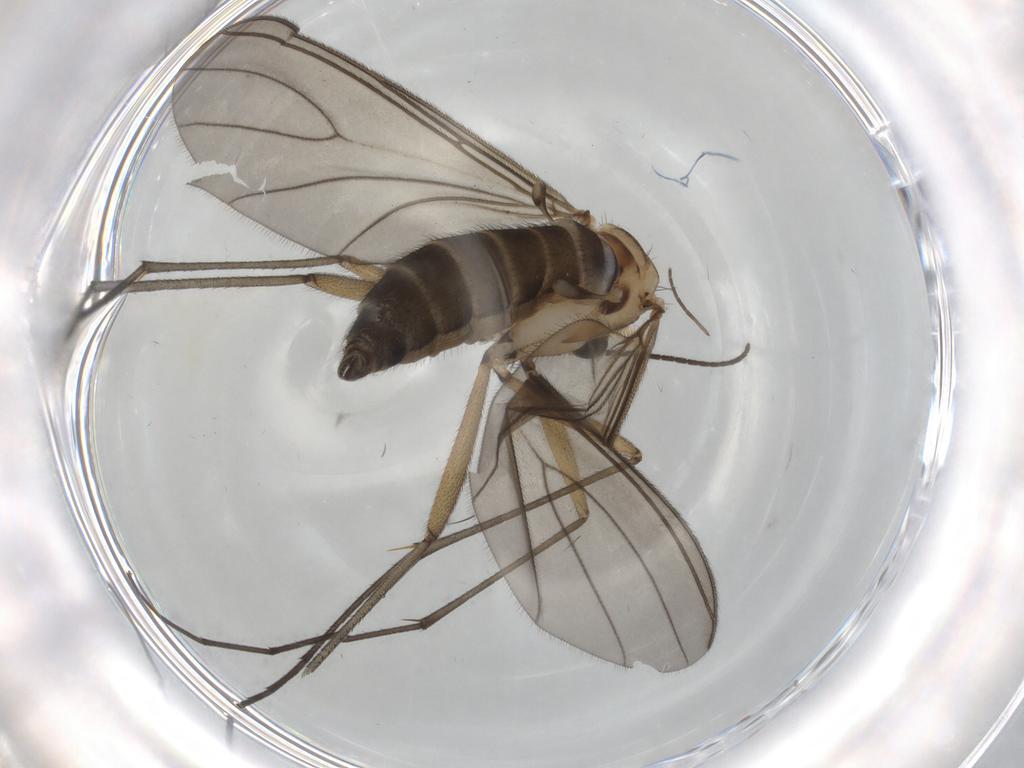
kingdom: Animalia
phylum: Arthropoda
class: Insecta
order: Diptera
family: Sciaridae
